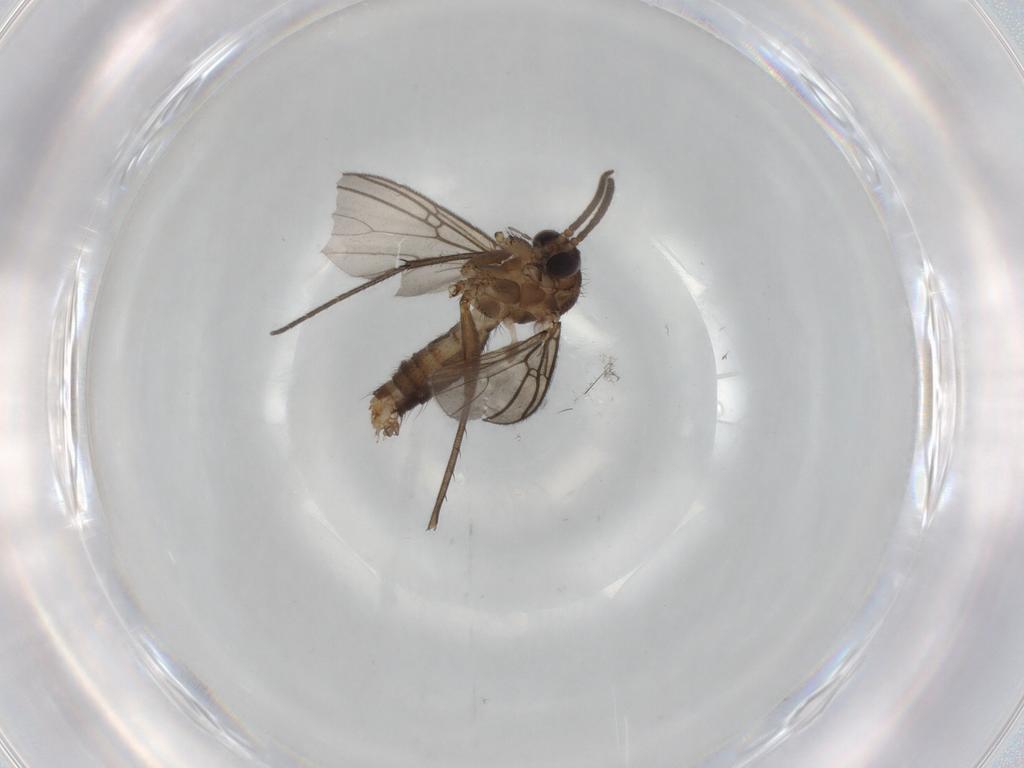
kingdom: Animalia
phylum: Arthropoda
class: Insecta
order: Diptera
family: Mycetophilidae
